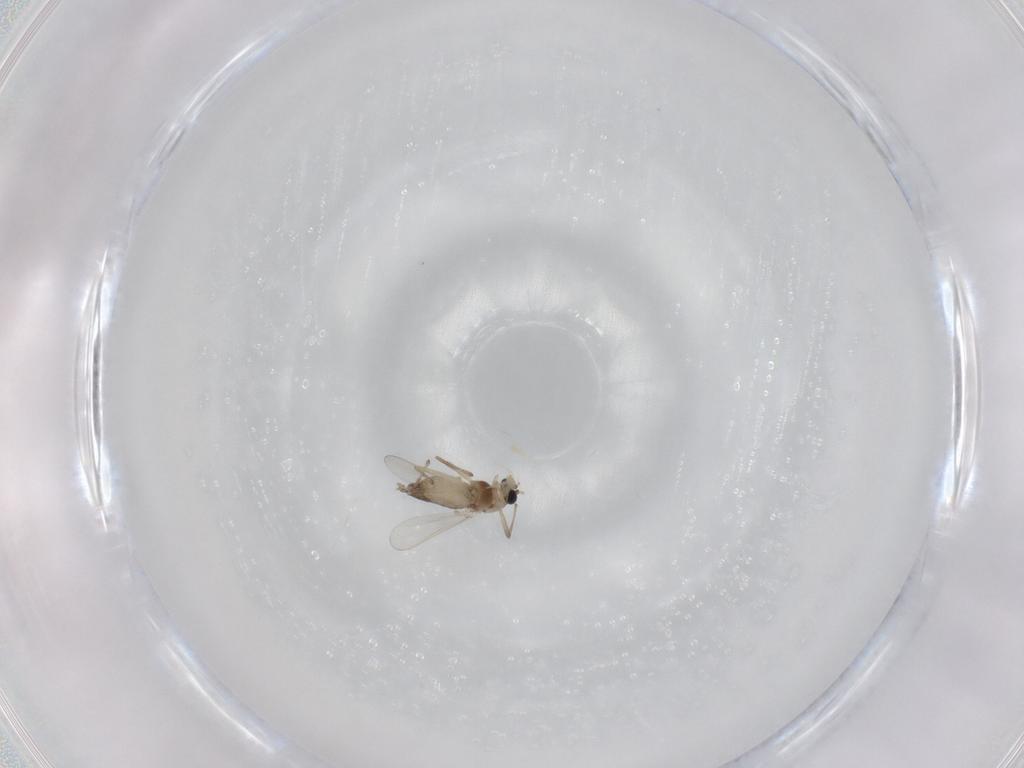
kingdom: Animalia
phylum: Arthropoda
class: Insecta
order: Diptera
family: Chironomidae
